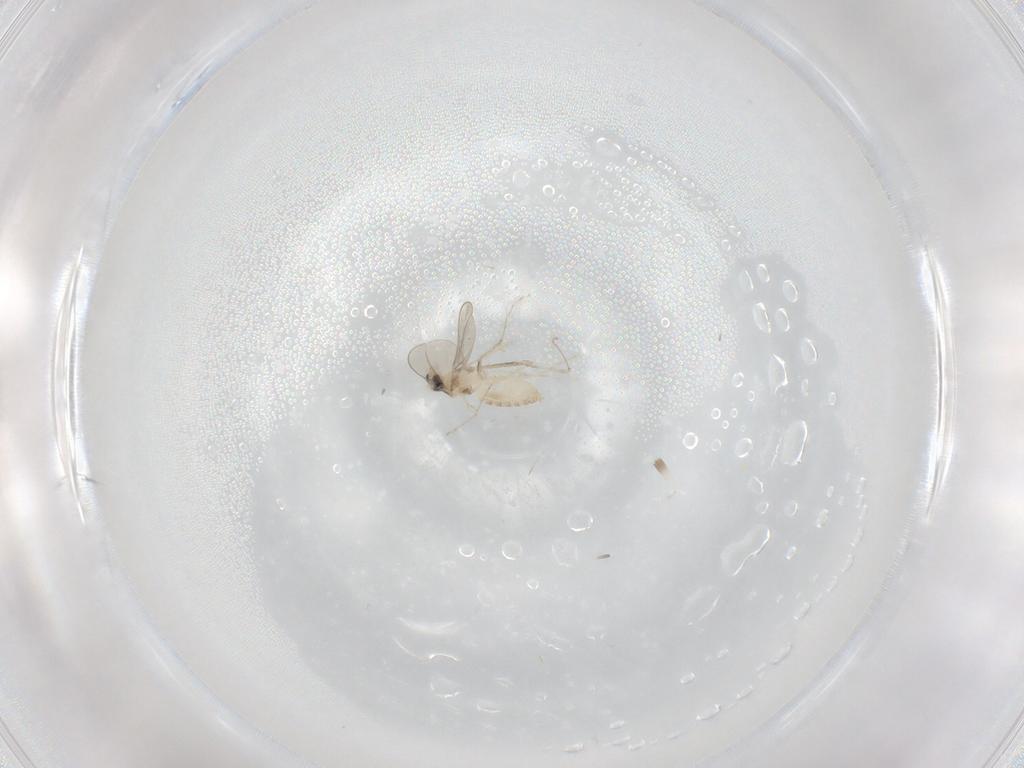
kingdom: Animalia
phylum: Arthropoda
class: Insecta
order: Diptera
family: Cecidomyiidae
